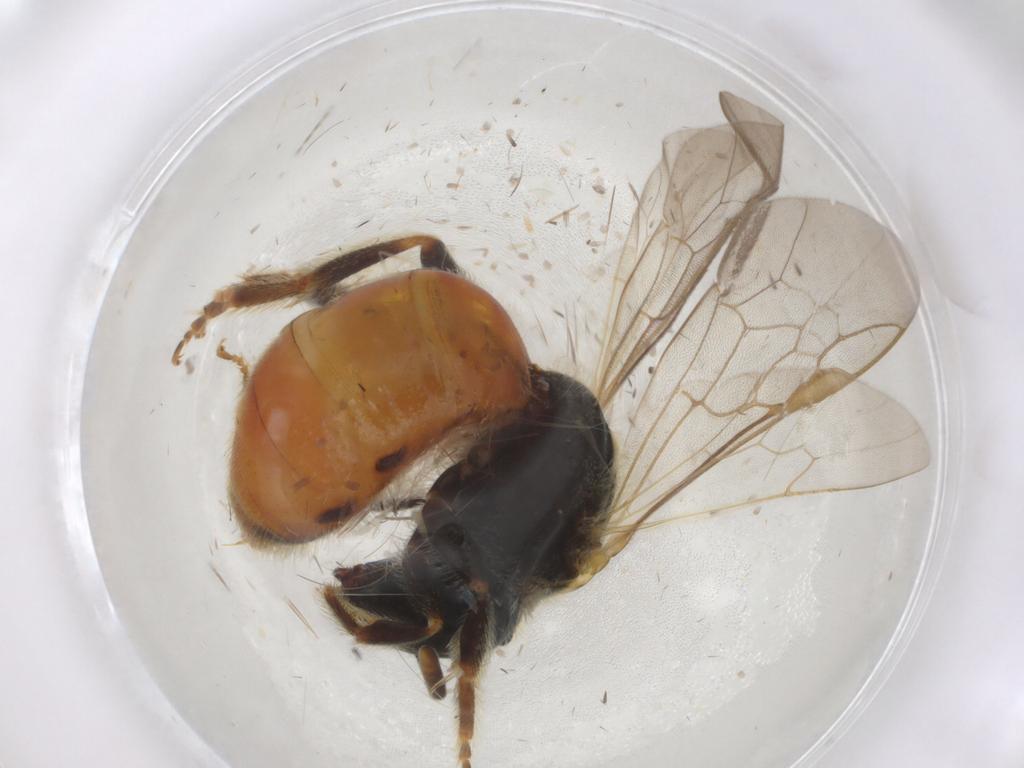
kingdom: Animalia
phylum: Arthropoda
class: Insecta
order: Hymenoptera
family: Halictidae
